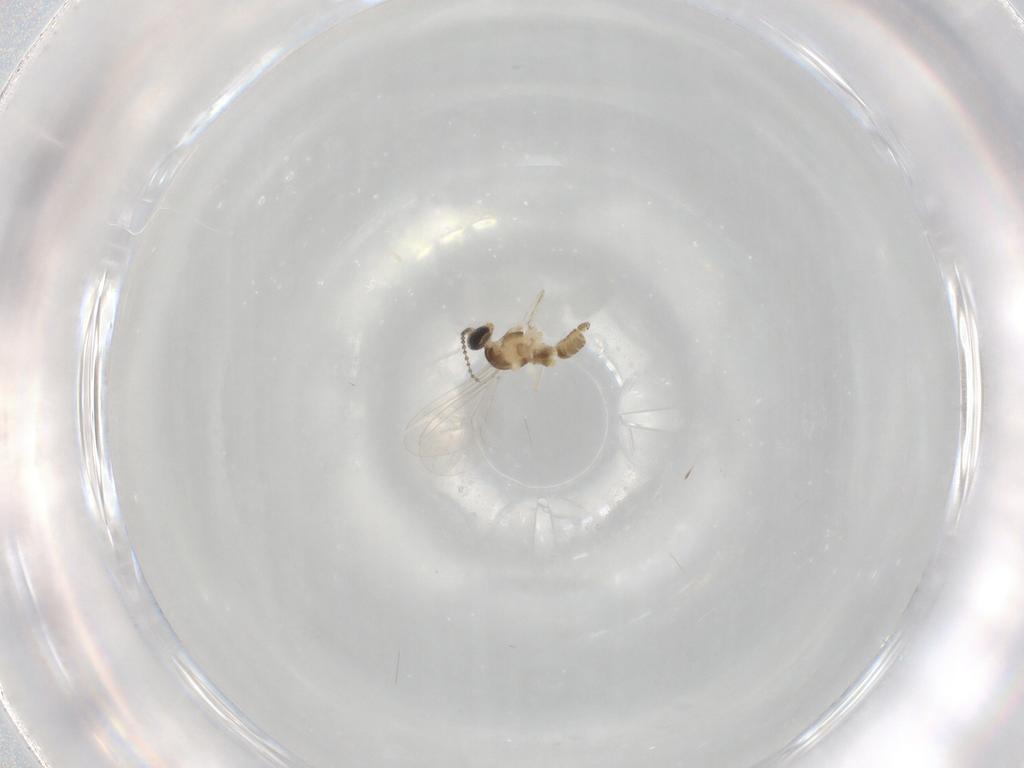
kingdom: Animalia
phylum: Arthropoda
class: Insecta
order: Diptera
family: Cecidomyiidae
